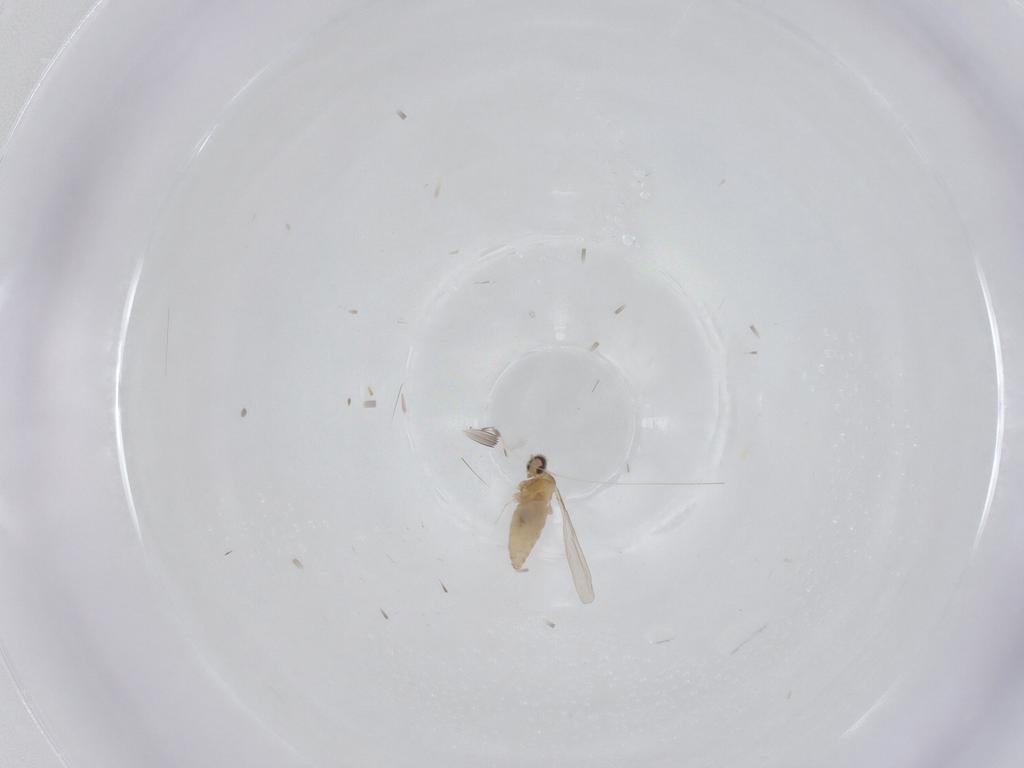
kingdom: Animalia
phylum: Arthropoda
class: Insecta
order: Diptera
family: Cecidomyiidae
